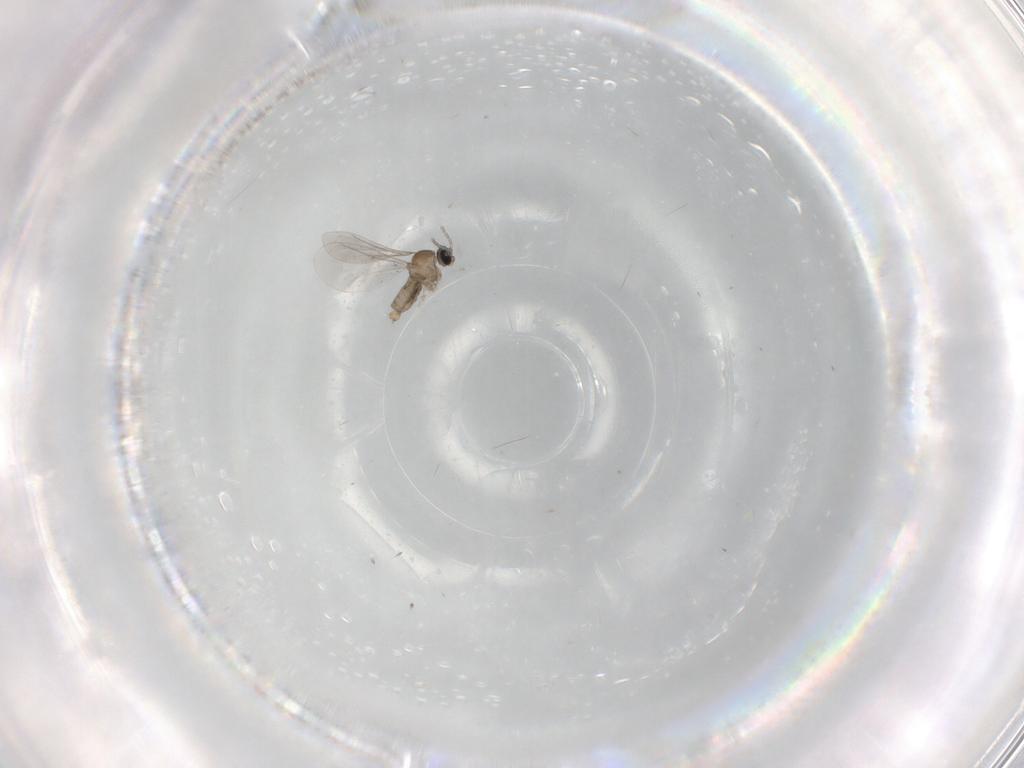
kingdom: Animalia
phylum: Arthropoda
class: Insecta
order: Diptera
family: Cecidomyiidae
